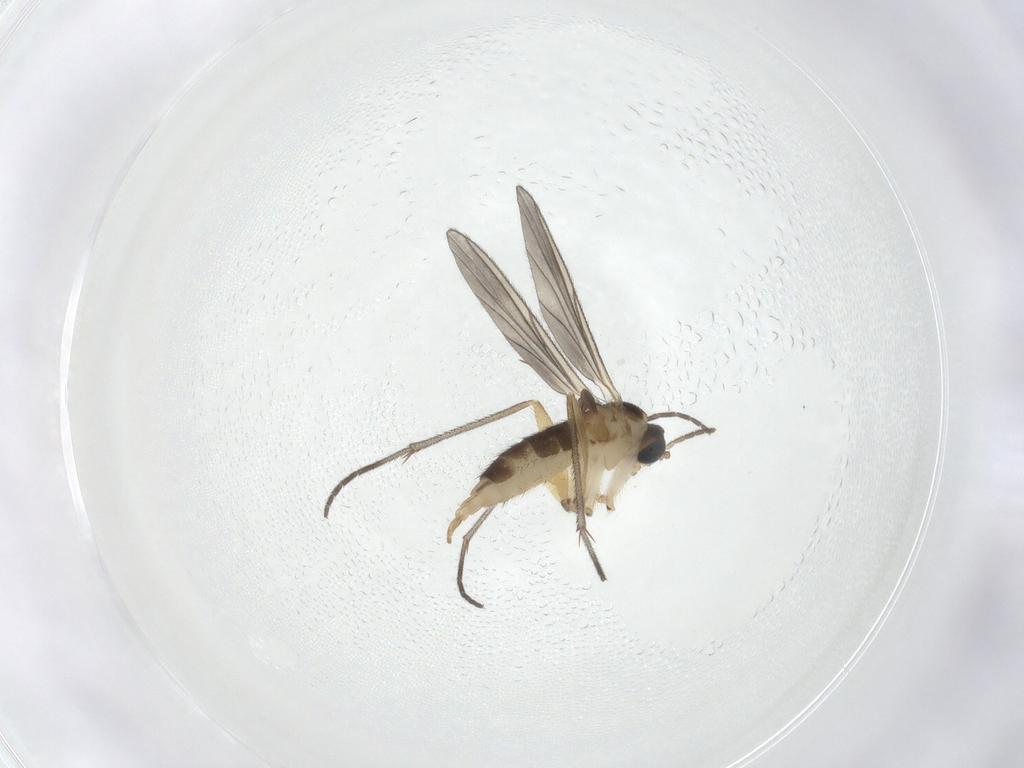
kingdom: Animalia
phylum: Arthropoda
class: Insecta
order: Diptera
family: Sciaridae
